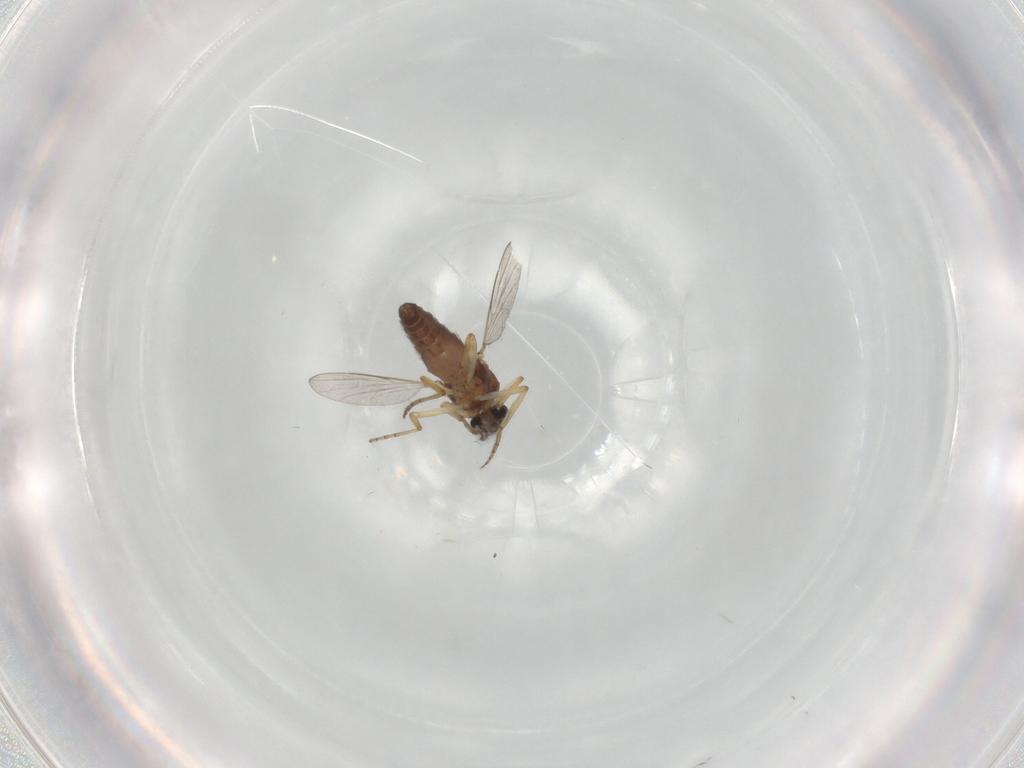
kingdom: Animalia
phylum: Arthropoda
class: Insecta
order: Diptera
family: Ceratopogonidae
